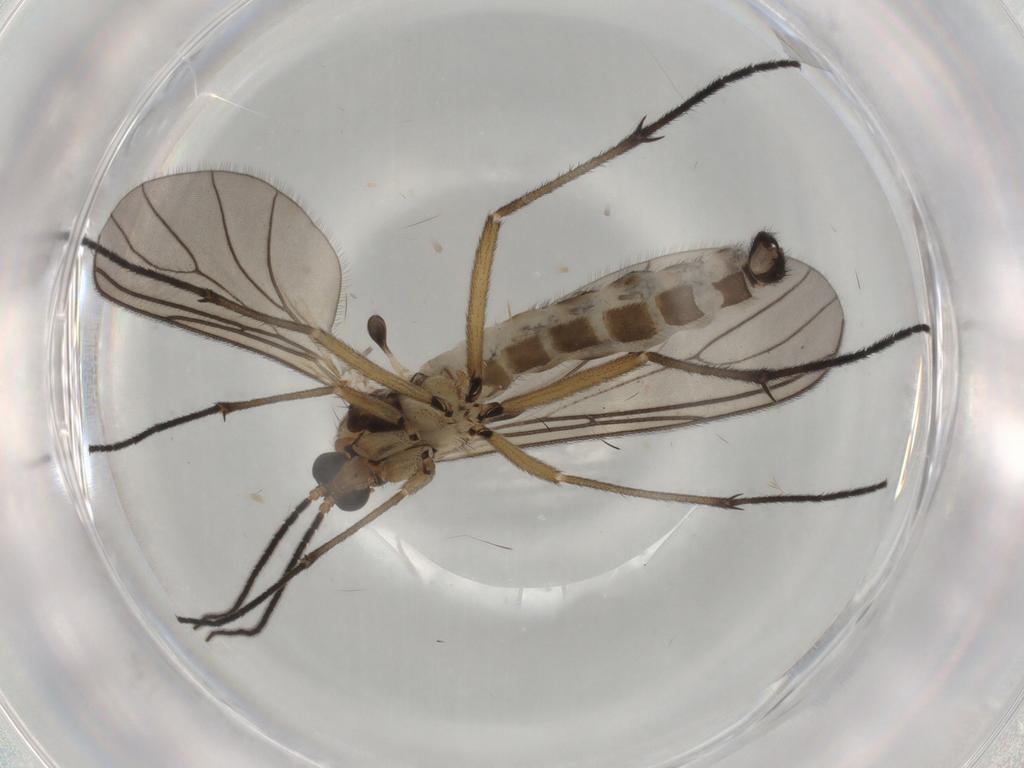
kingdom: Animalia
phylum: Arthropoda
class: Insecta
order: Diptera
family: Sciaridae
